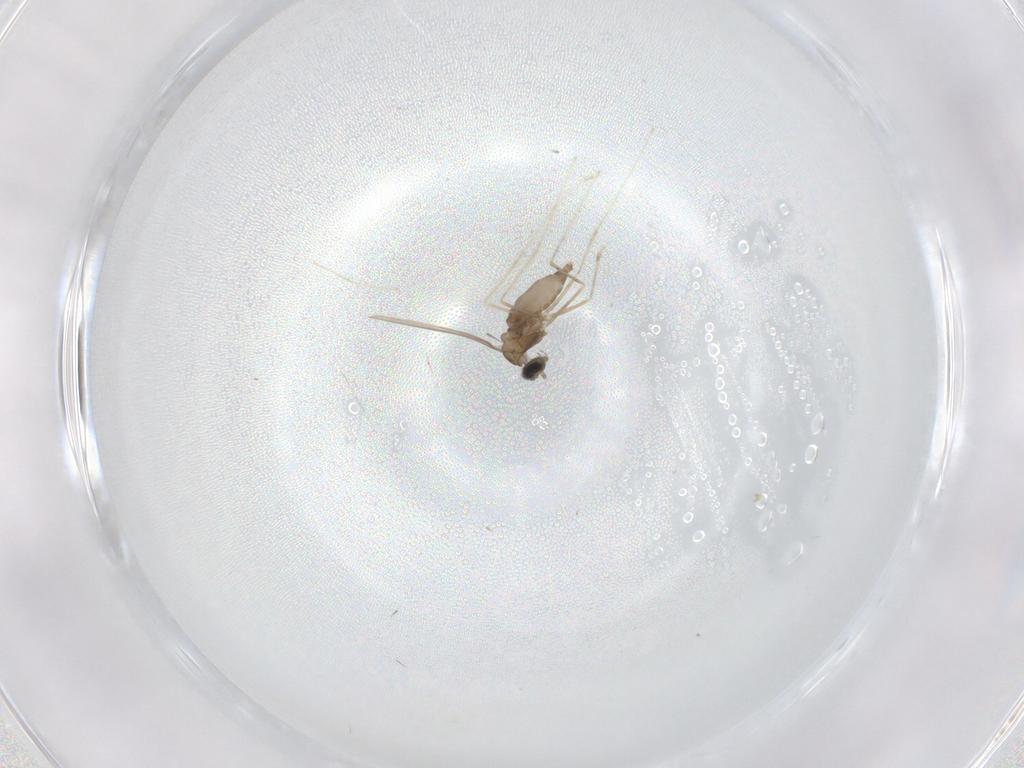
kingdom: Animalia
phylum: Arthropoda
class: Insecta
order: Diptera
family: Cecidomyiidae
